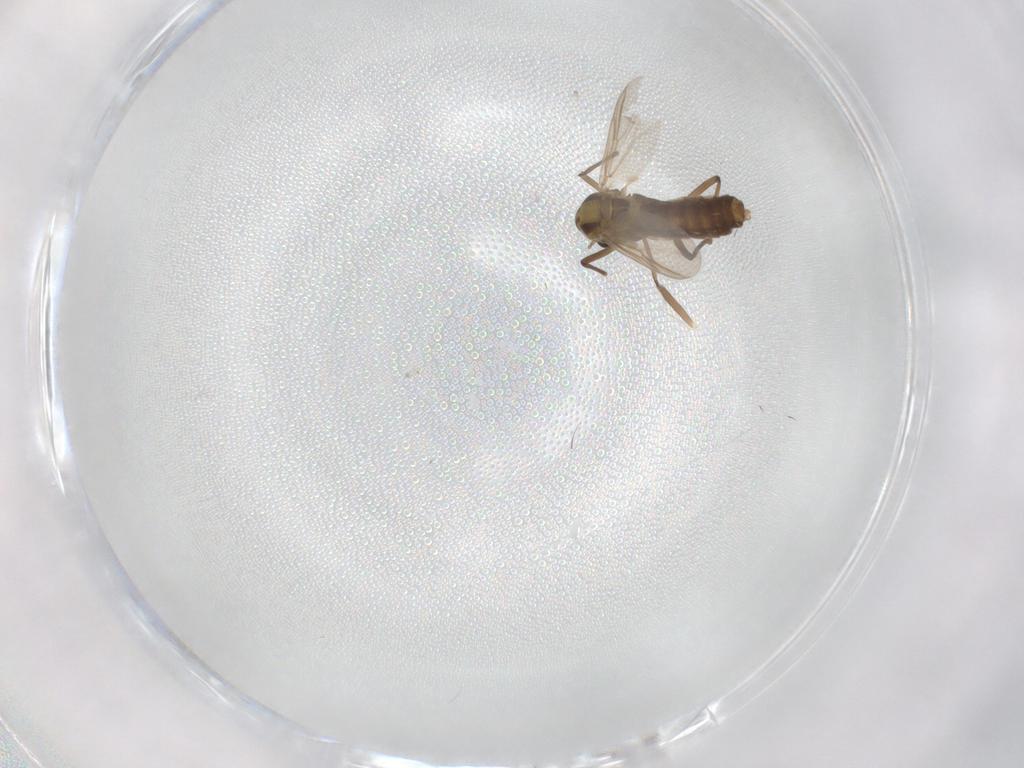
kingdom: Animalia
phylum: Arthropoda
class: Insecta
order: Diptera
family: Chironomidae
